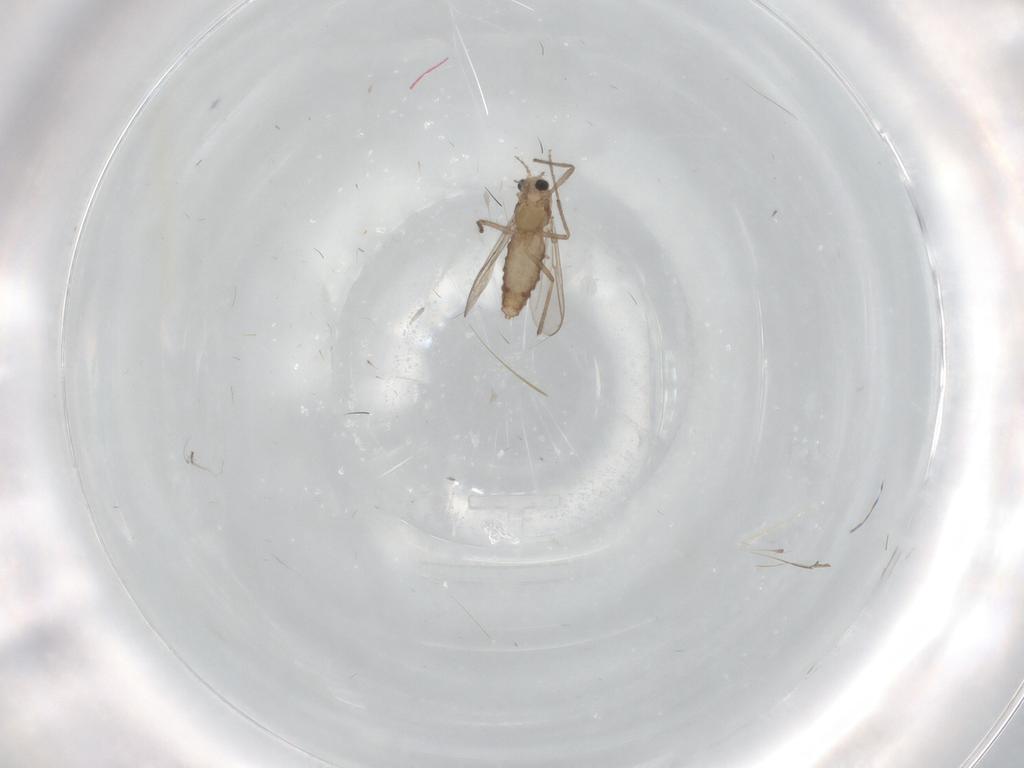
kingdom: Animalia
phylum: Arthropoda
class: Insecta
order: Diptera
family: Chironomidae
